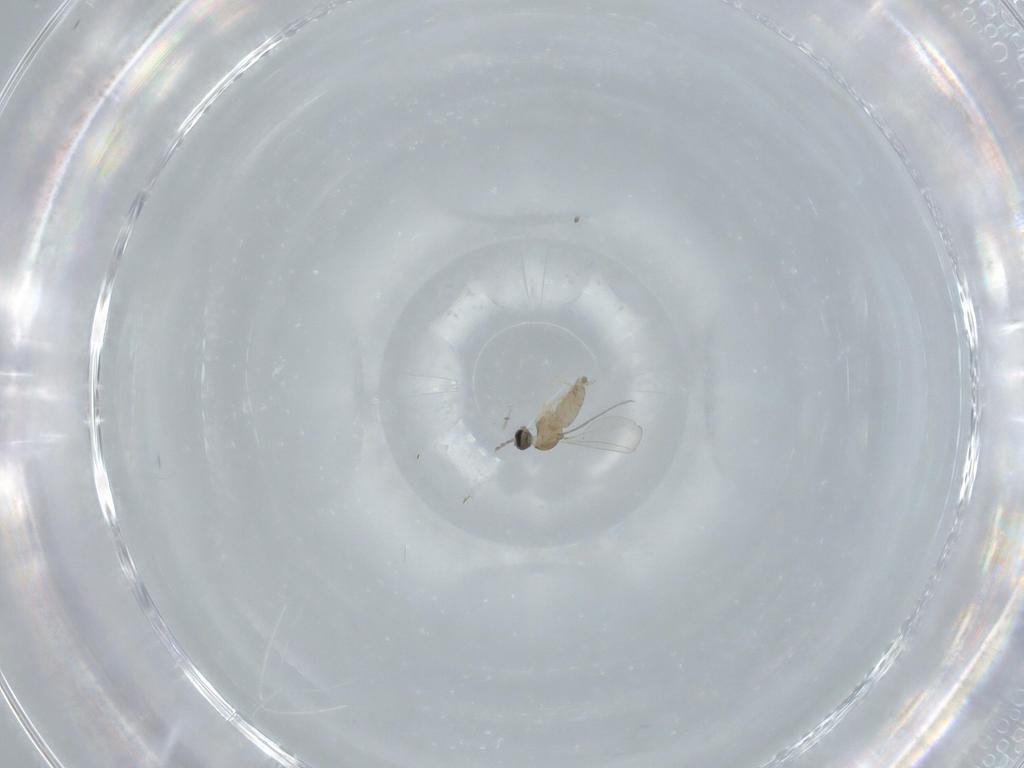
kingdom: Animalia
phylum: Arthropoda
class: Insecta
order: Diptera
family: Cecidomyiidae
